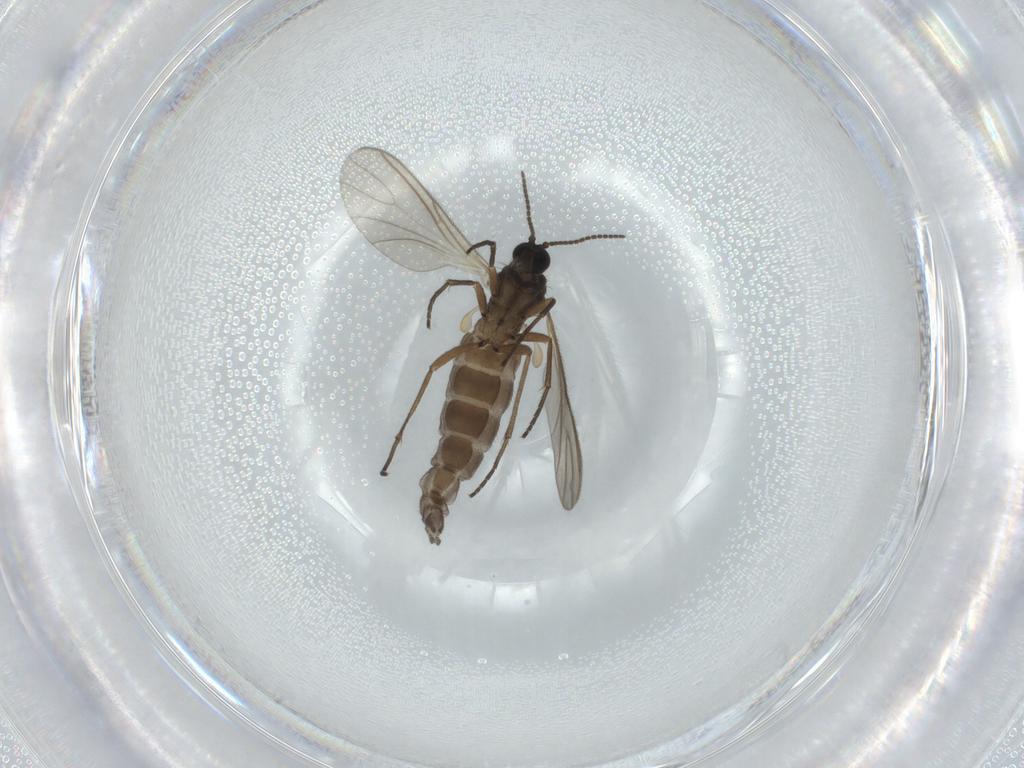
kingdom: Animalia
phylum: Arthropoda
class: Insecta
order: Diptera
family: Sciaridae
